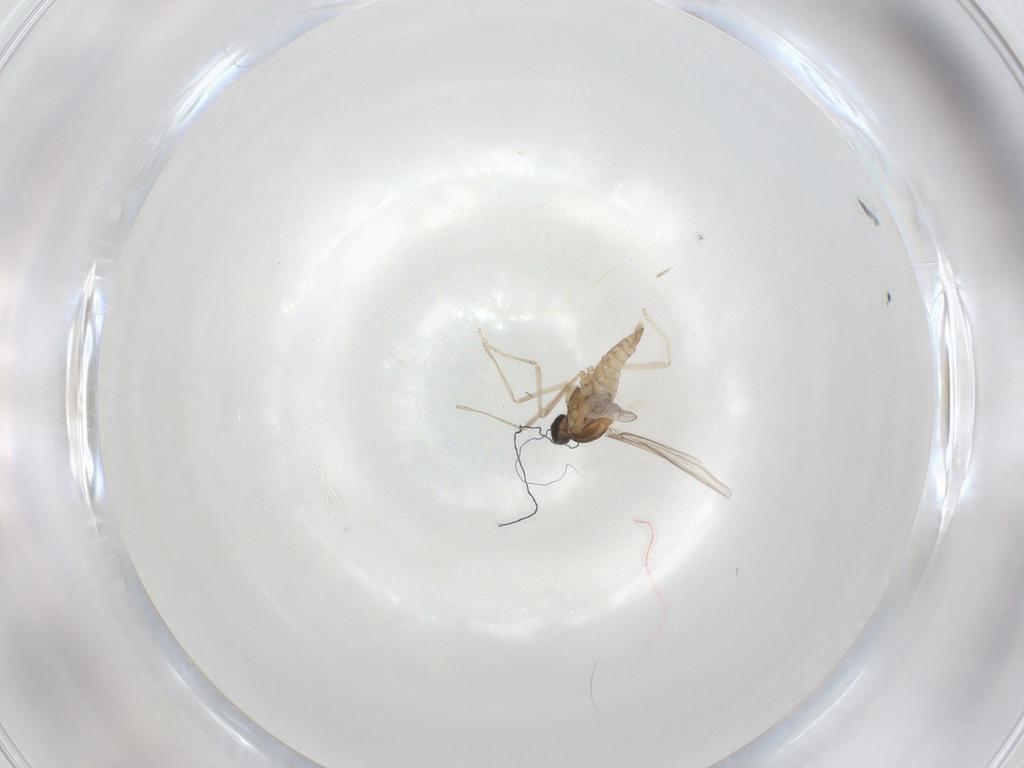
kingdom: Animalia
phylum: Arthropoda
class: Insecta
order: Diptera
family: Cecidomyiidae
